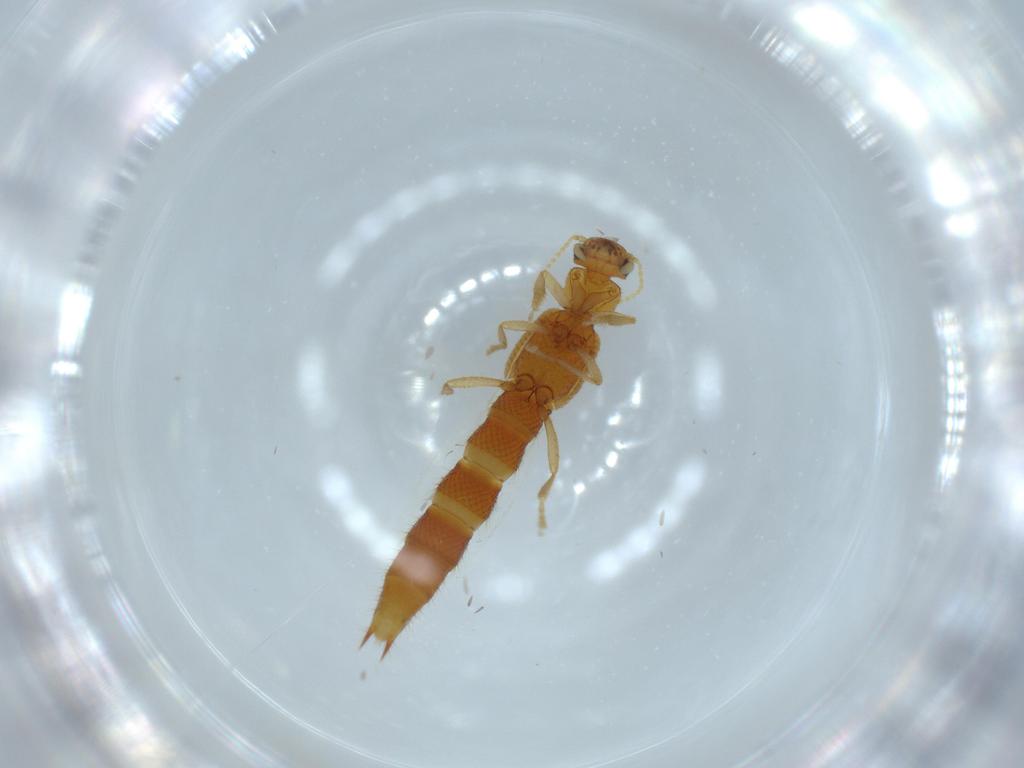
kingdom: Animalia
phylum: Arthropoda
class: Insecta
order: Coleoptera
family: Staphylinidae
